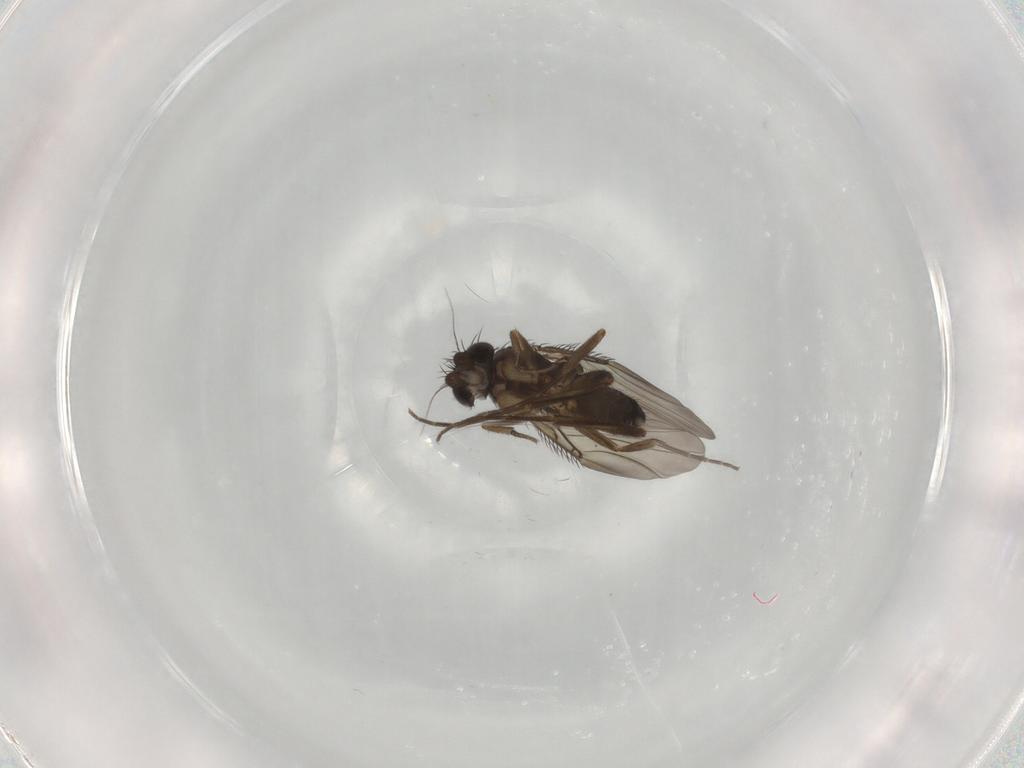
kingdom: Animalia
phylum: Arthropoda
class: Insecta
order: Diptera
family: Phoridae
